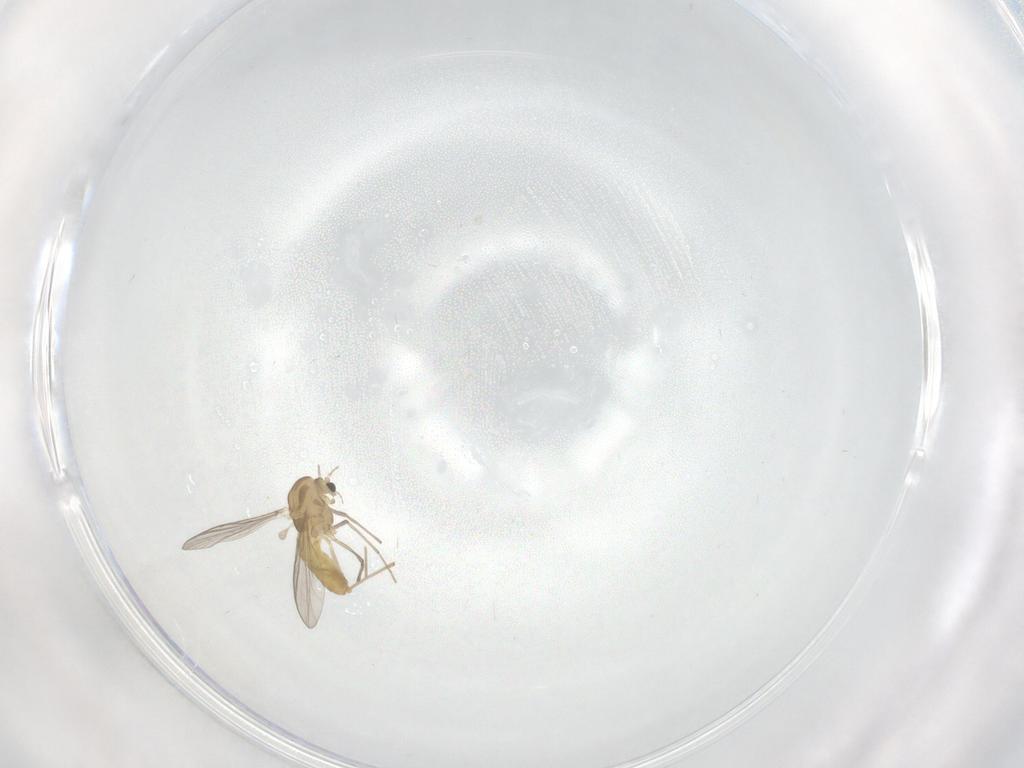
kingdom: Animalia
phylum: Arthropoda
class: Insecta
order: Diptera
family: Chironomidae
